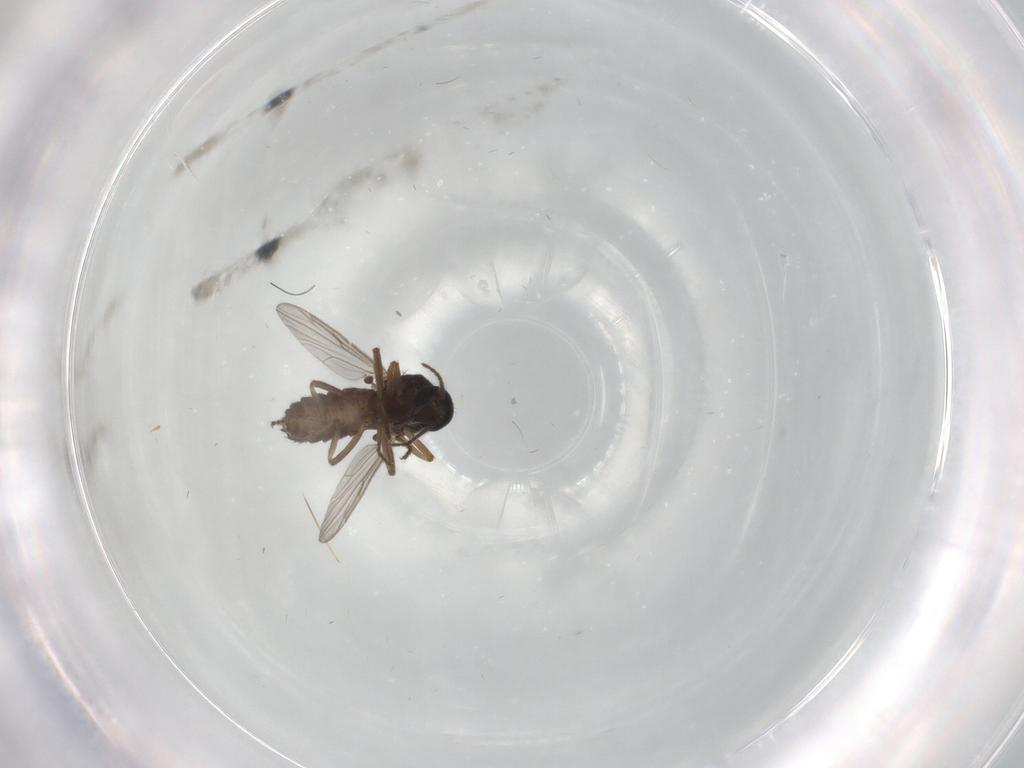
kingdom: Animalia
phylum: Arthropoda
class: Insecta
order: Diptera
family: Ceratopogonidae
